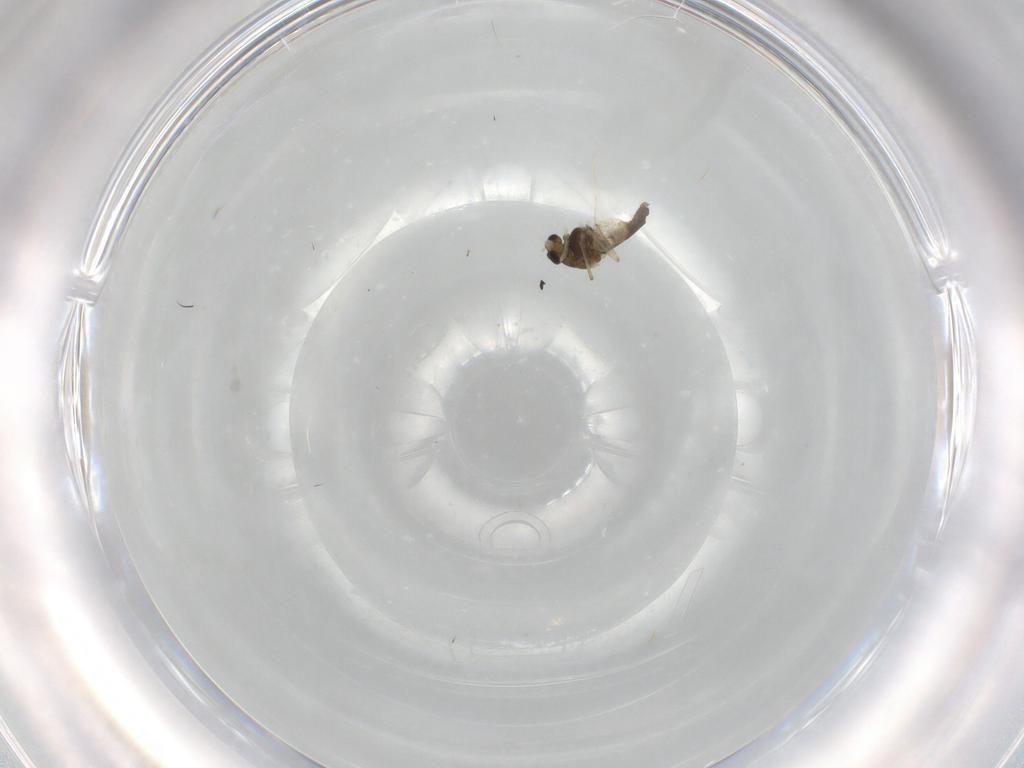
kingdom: Animalia
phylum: Arthropoda
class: Insecta
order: Diptera
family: Chironomidae
